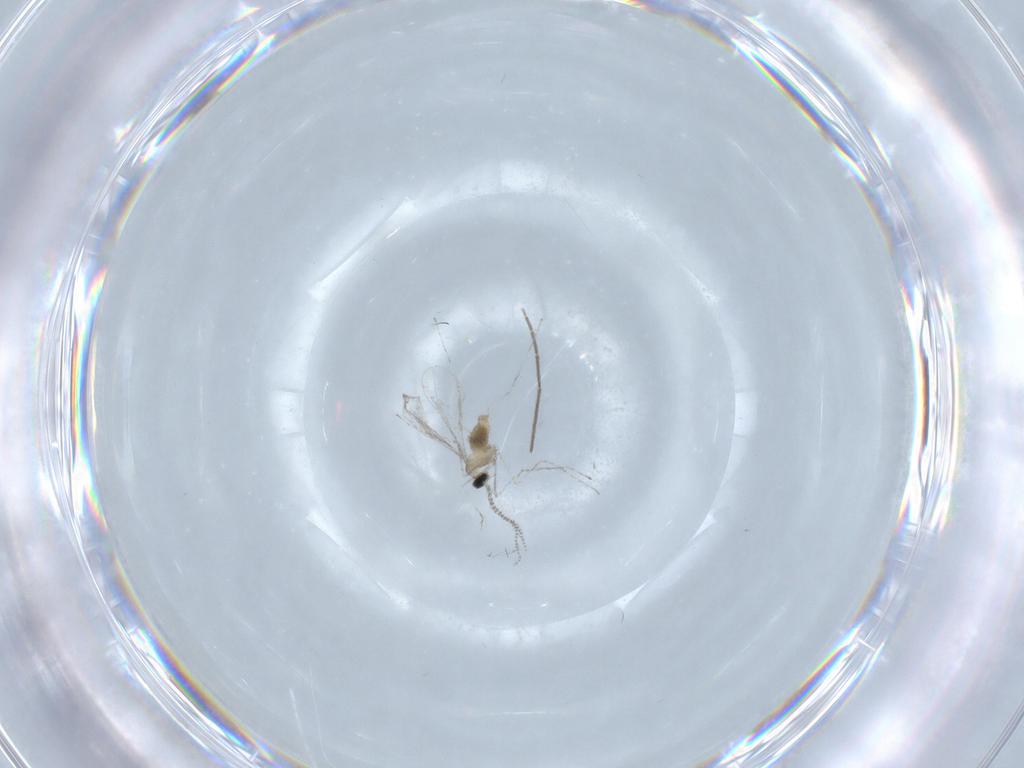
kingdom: Animalia
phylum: Arthropoda
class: Insecta
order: Diptera
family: Cecidomyiidae
